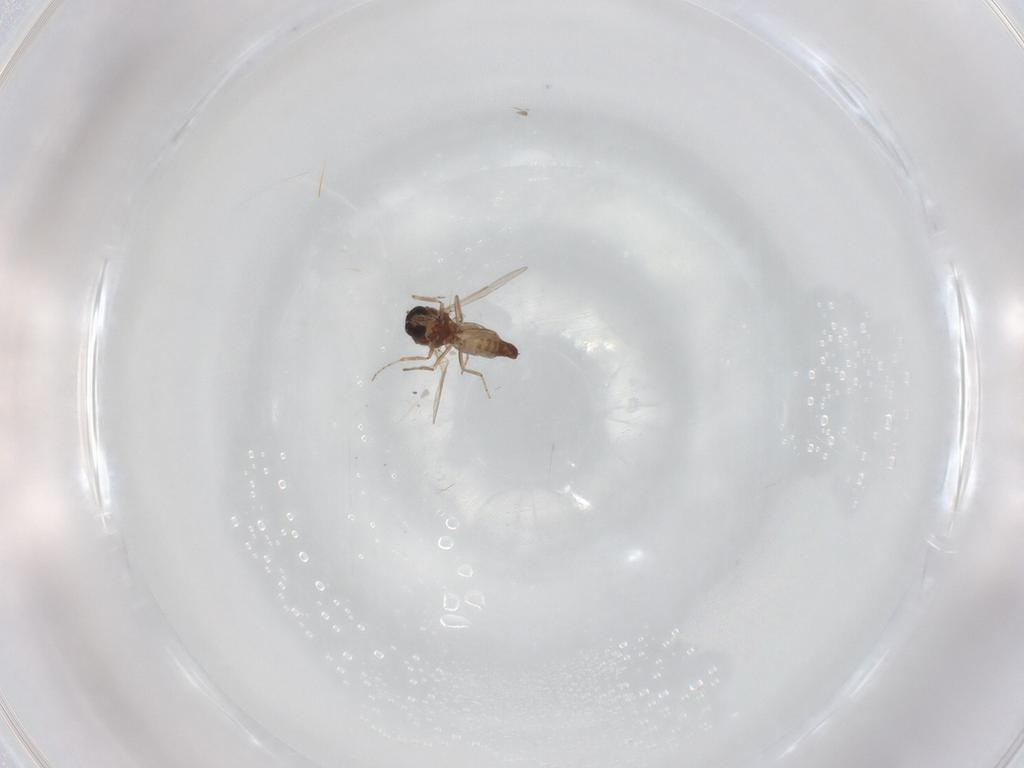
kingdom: Animalia
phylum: Arthropoda
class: Insecta
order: Diptera
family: Ceratopogonidae
